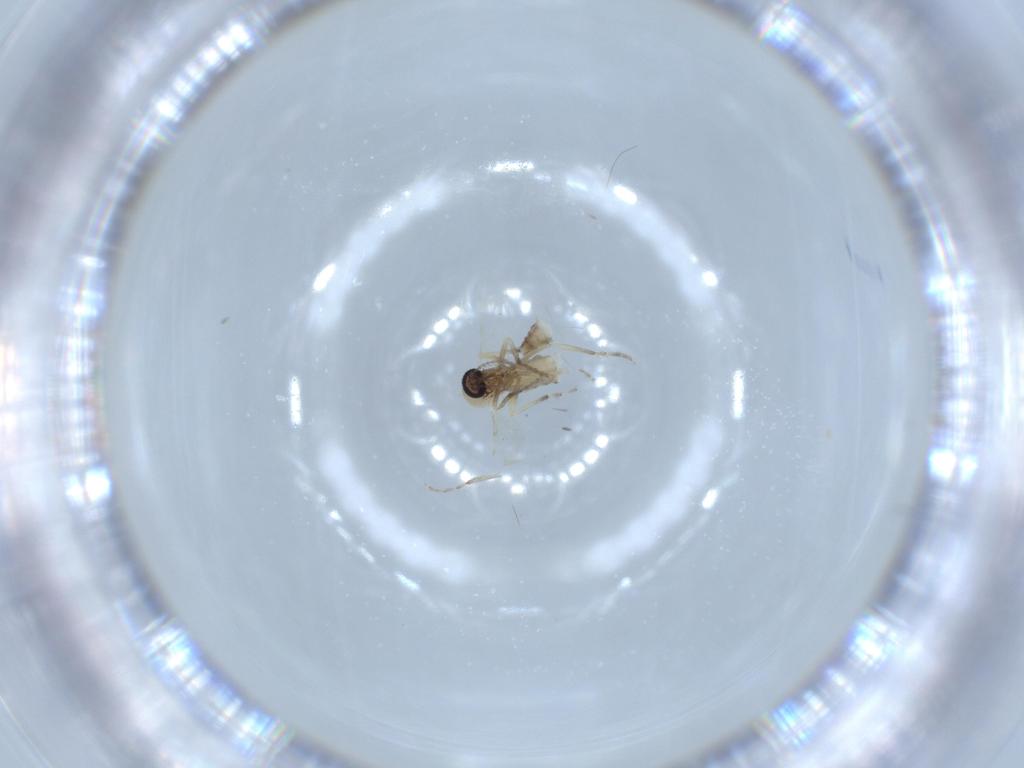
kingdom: Animalia
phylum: Arthropoda
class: Insecta
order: Diptera
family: Ceratopogonidae
